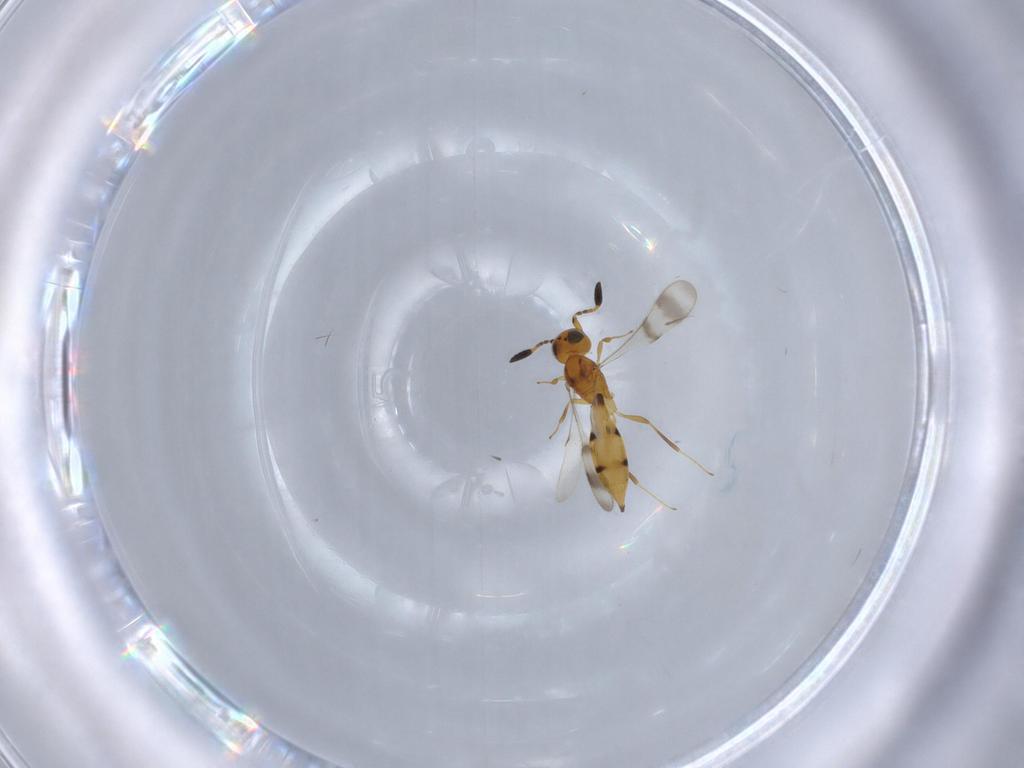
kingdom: Animalia
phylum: Arthropoda
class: Insecta
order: Hymenoptera
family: Scelionidae
